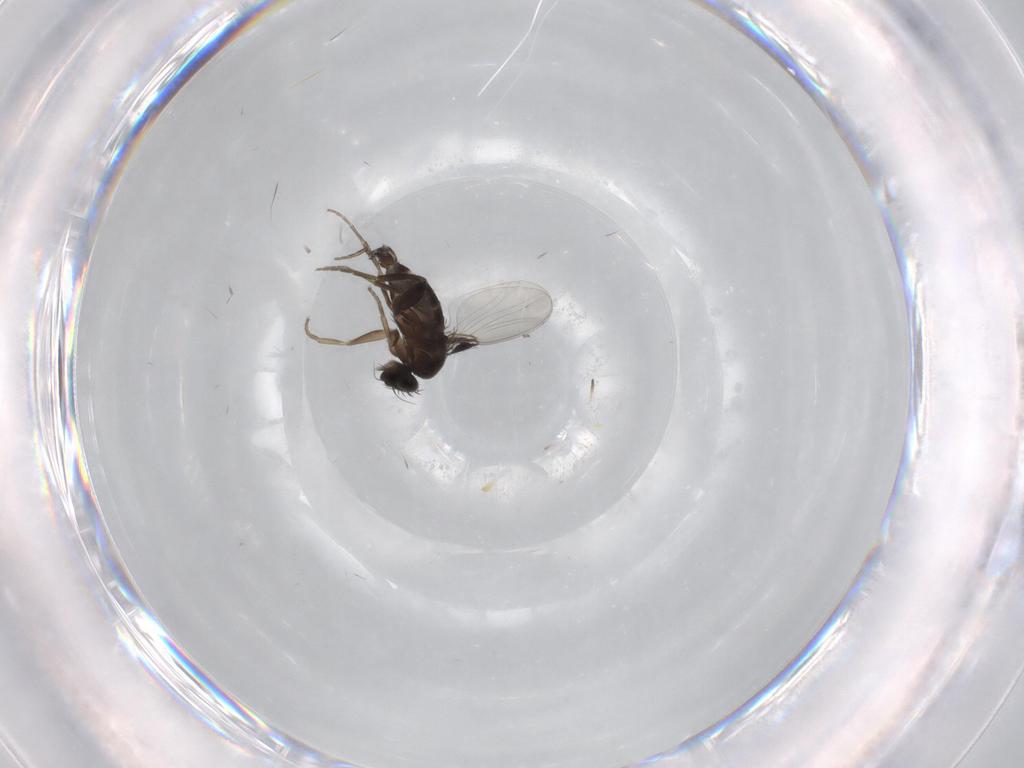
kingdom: Animalia
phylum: Arthropoda
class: Insecta
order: Diptera
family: Phoridae
